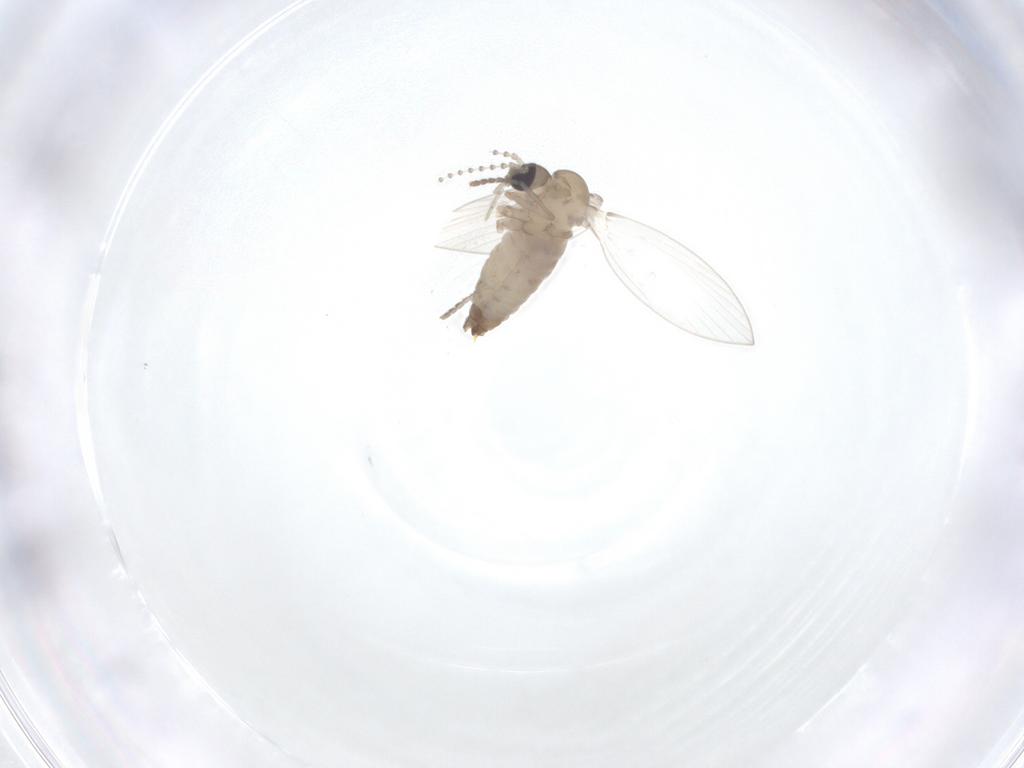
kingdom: Animalia
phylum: Arthropoda
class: Insecta
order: Diptera
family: Psychodidae
